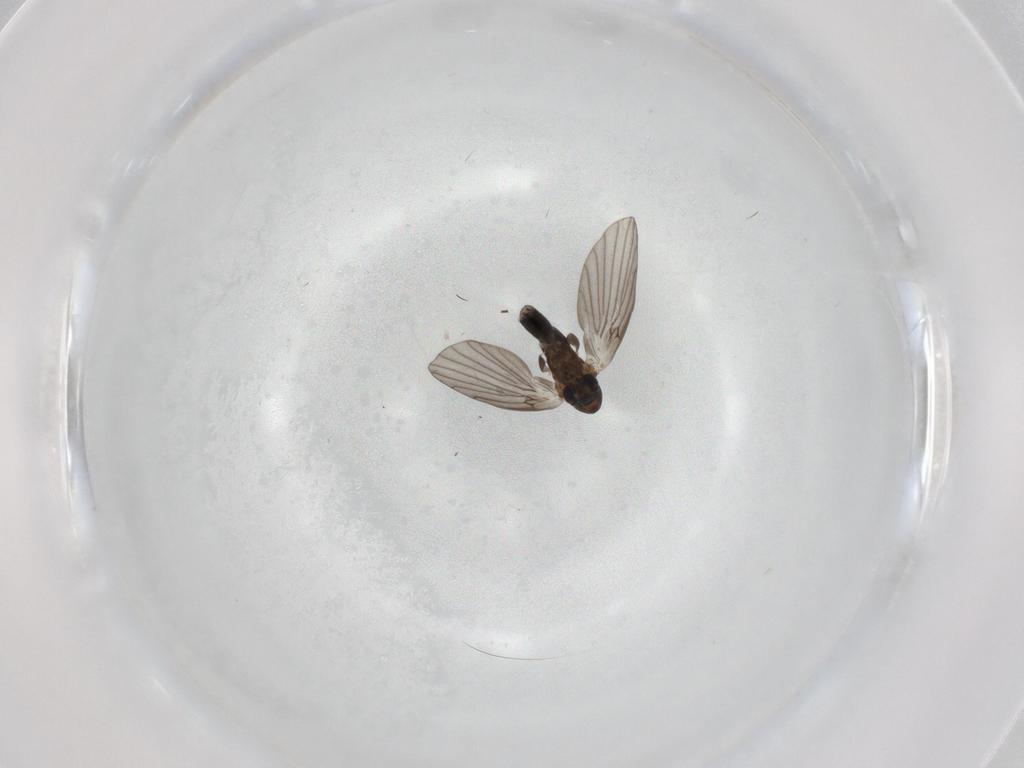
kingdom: Animalia
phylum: Arthropoda
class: Insecta
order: Diptera
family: Sciaridae
